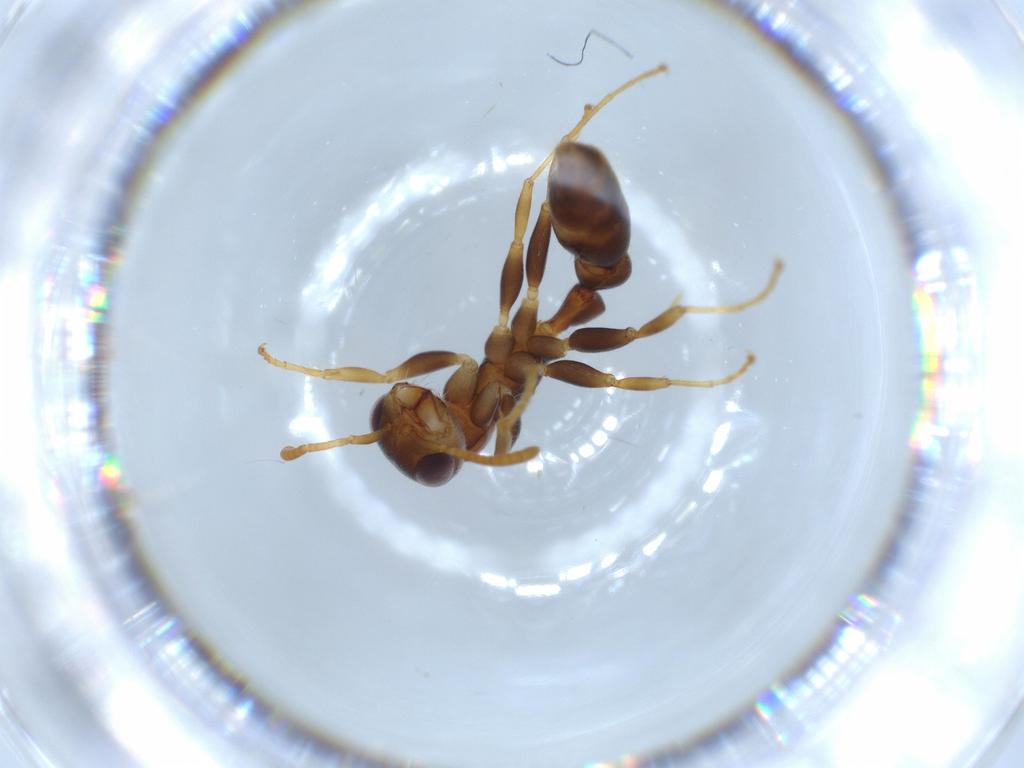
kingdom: Animalia
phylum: Arthropoda
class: Insecta
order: Hymenoptera
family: Formicidae
